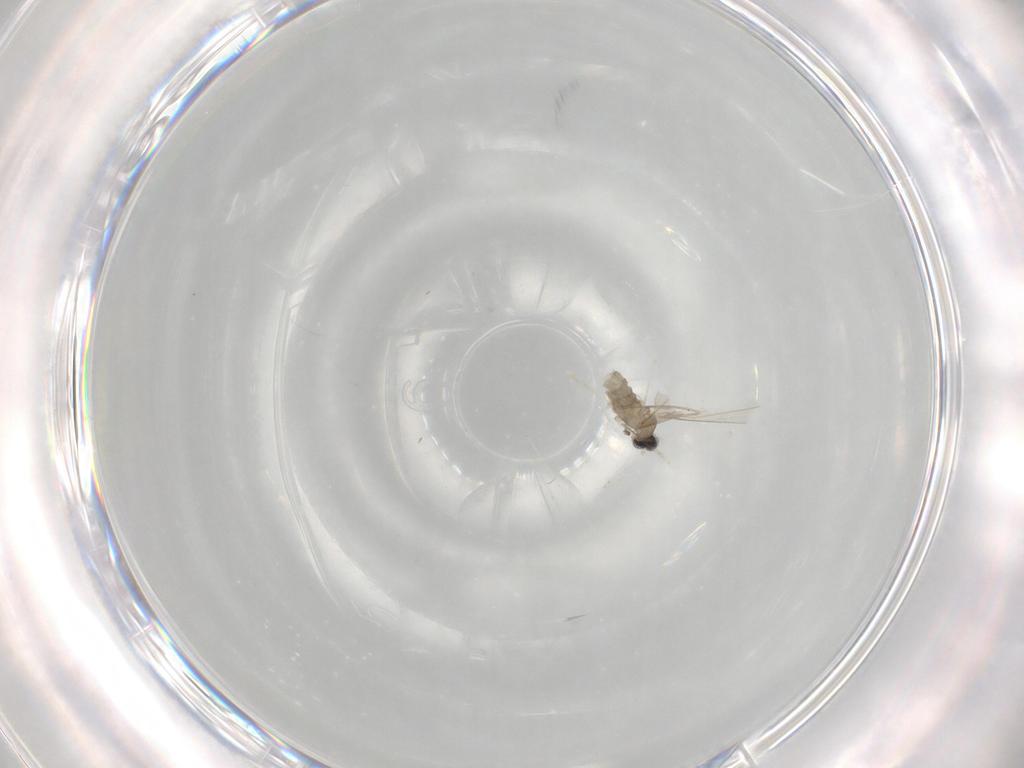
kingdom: Animalia
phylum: Arthropoda
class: Insecta
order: Diptera
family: Cecidomyiidae
